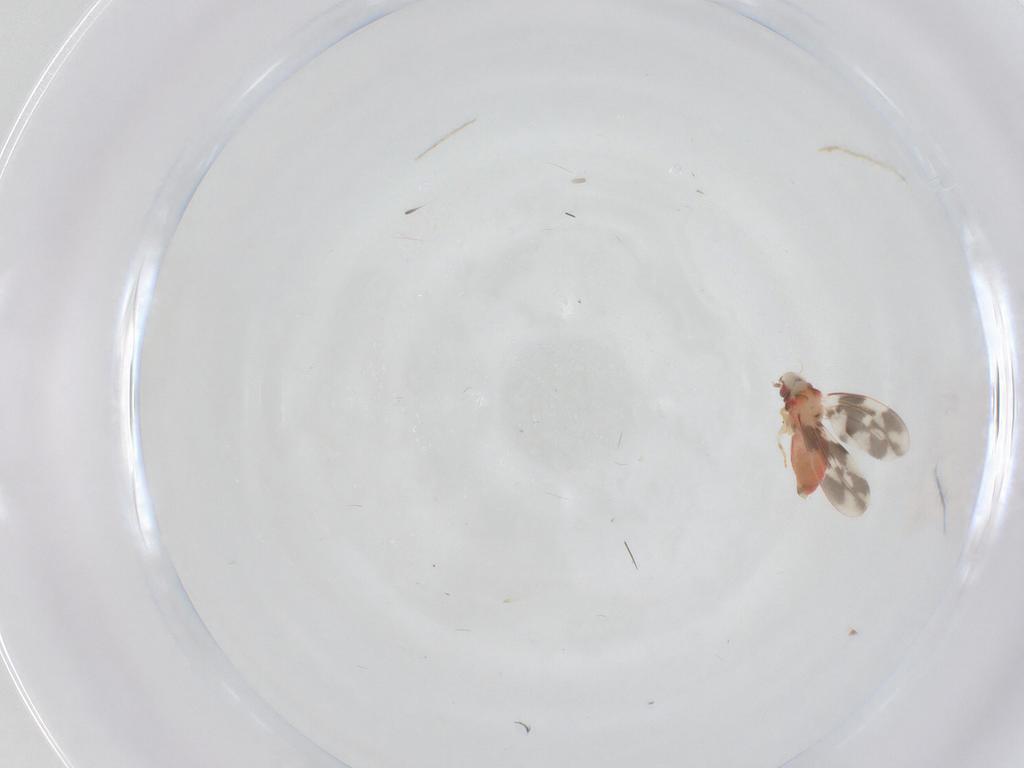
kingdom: Animalia
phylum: Arthropoda
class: Insecta
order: Hemiptera
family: Aleyrodidae
